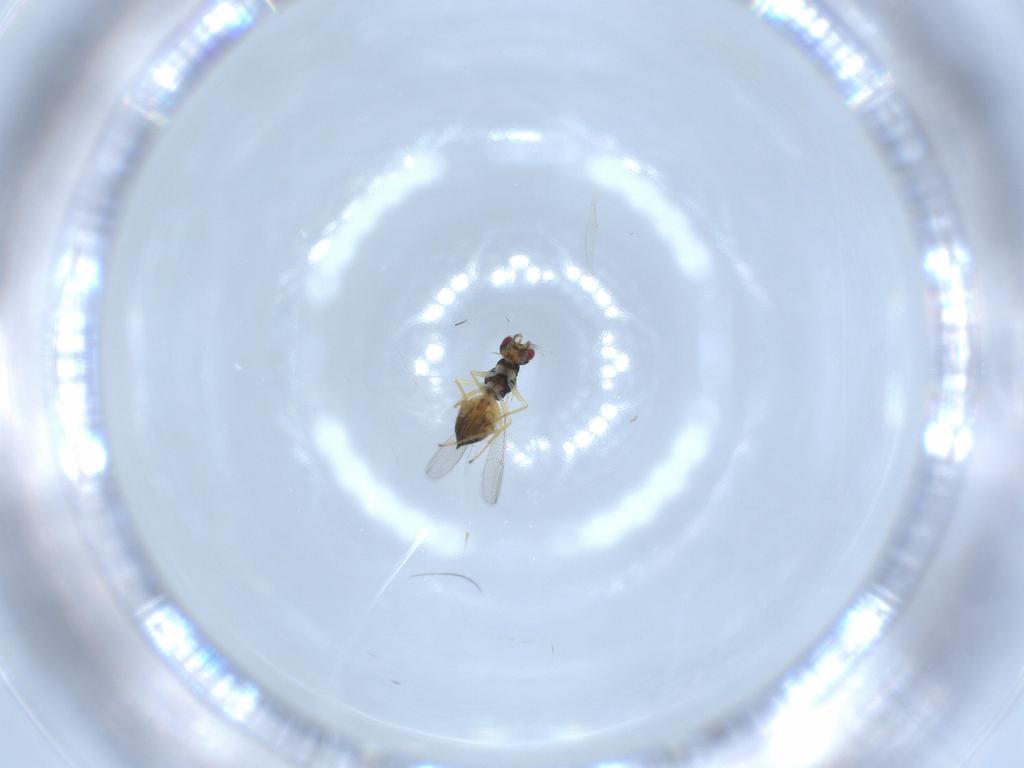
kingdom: Animalia
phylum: Arthropoda
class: Insecta
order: Hymenoptera
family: Eulophidae
